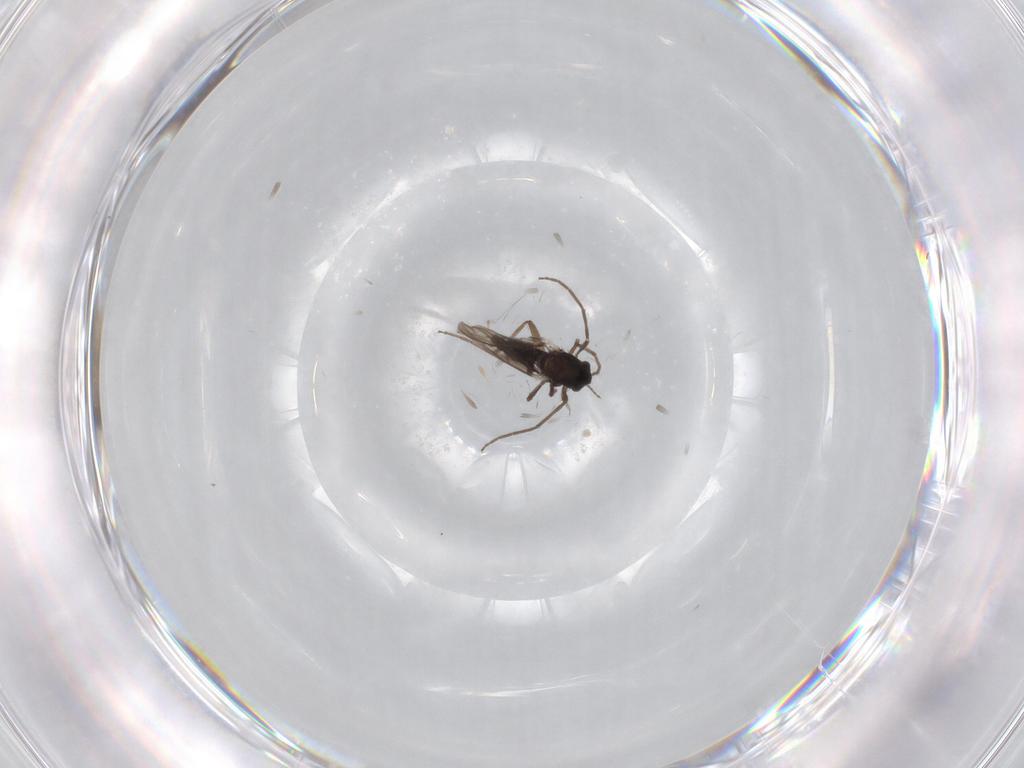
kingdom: Animalia
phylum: Arthropoda
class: Insecta
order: Diptera
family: Chironomidae
